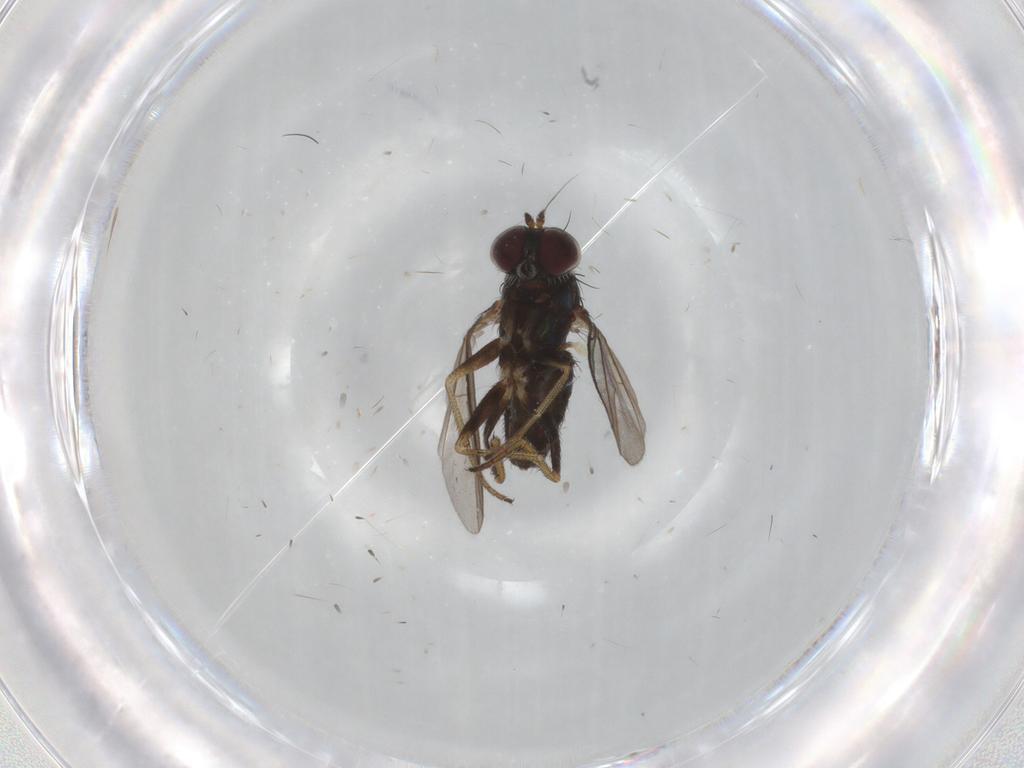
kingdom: Animalia
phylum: Arthropoda
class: Insecta
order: Diptera
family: Dolichopodidae
